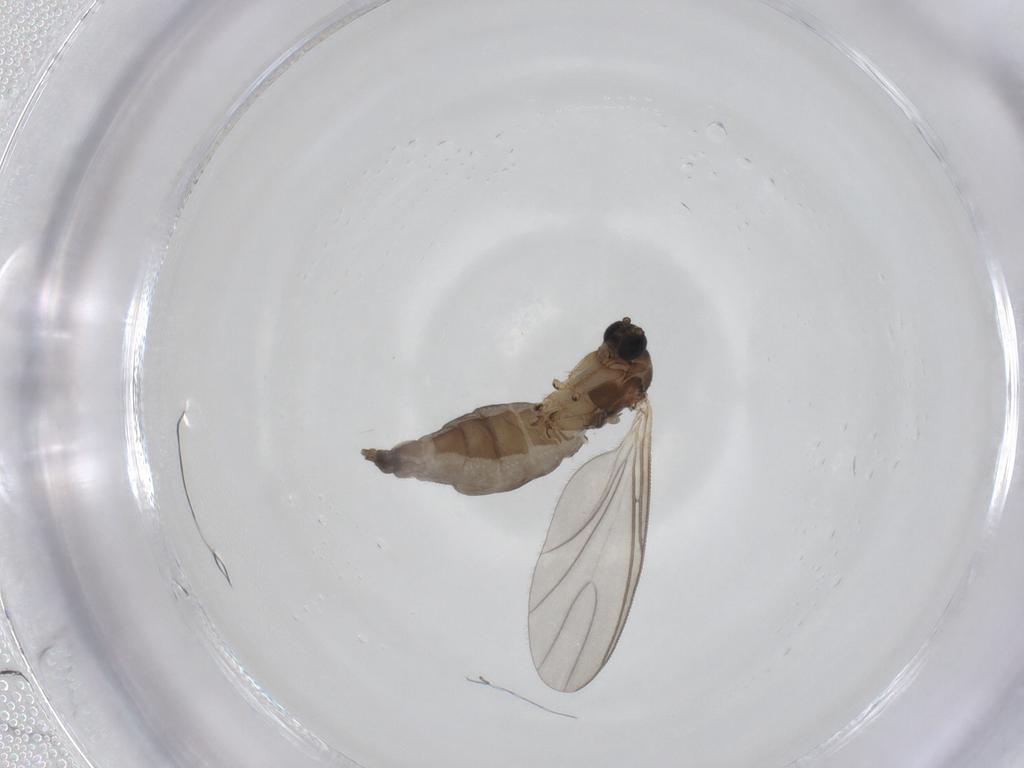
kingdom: Animalia
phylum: Arthropoda
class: Insecta
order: Diptera
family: Sciaridae
